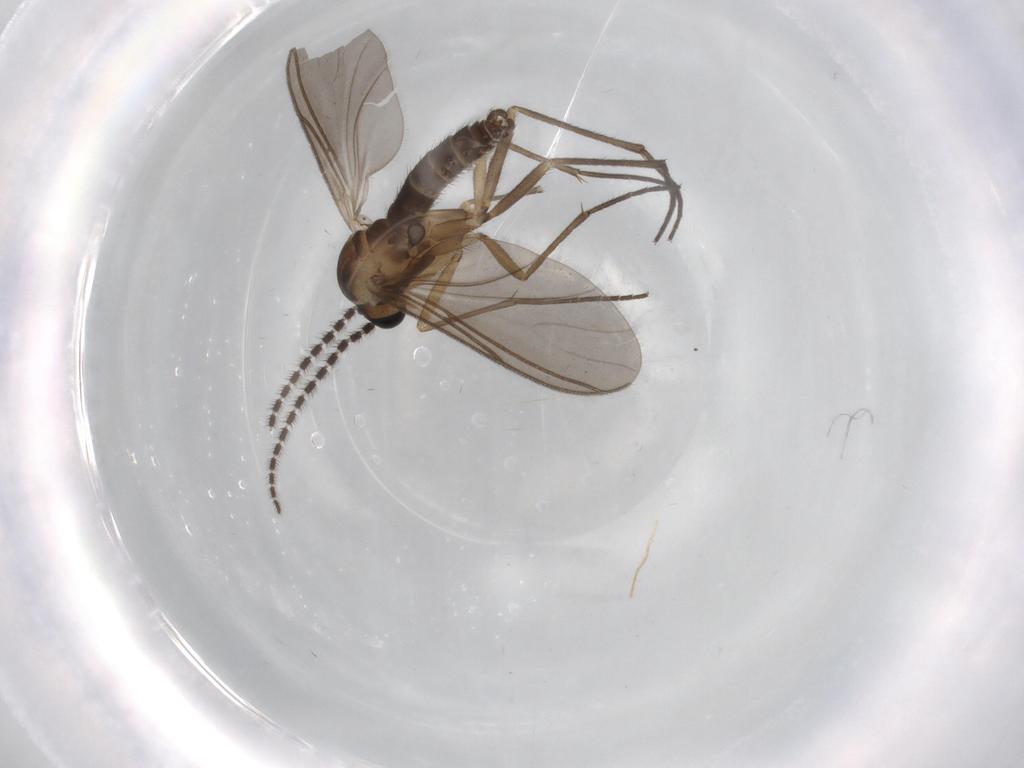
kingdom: Animalia
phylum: Arthropoda
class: Insecta
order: Diptera
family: Sciaridae
